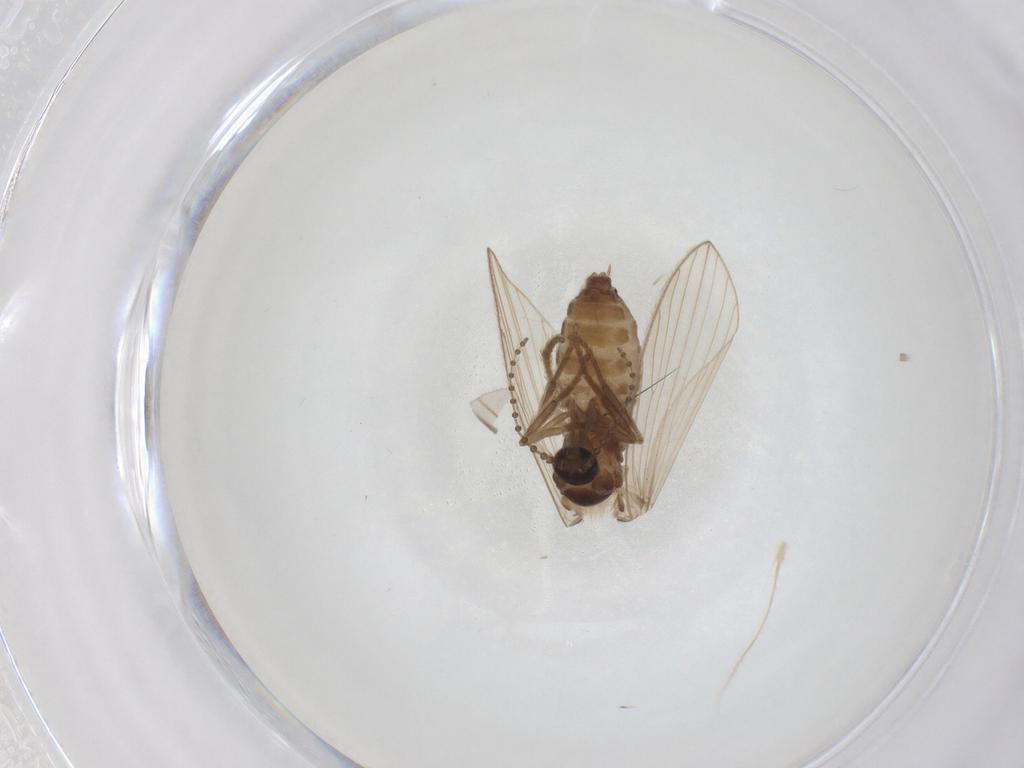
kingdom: Animalia
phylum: Arthropoda
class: Insecta
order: Diptera
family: Psychodidae
